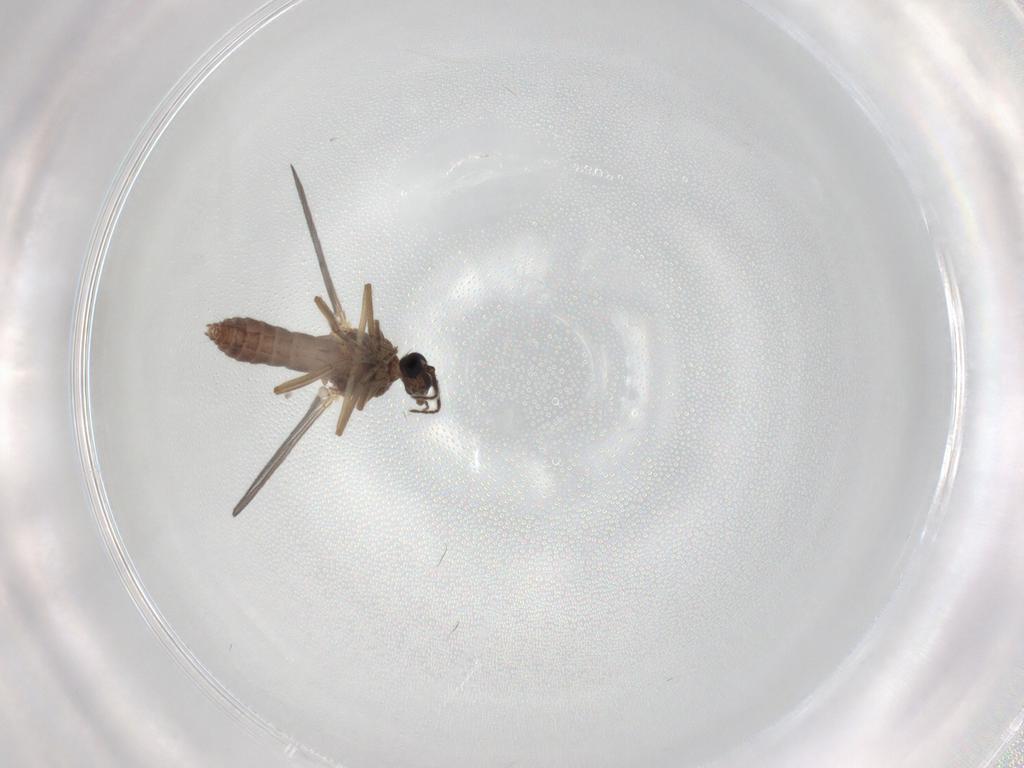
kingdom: Animalia
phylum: Arthropoda
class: Insecta
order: Diptera
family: Ceratopogonidae
